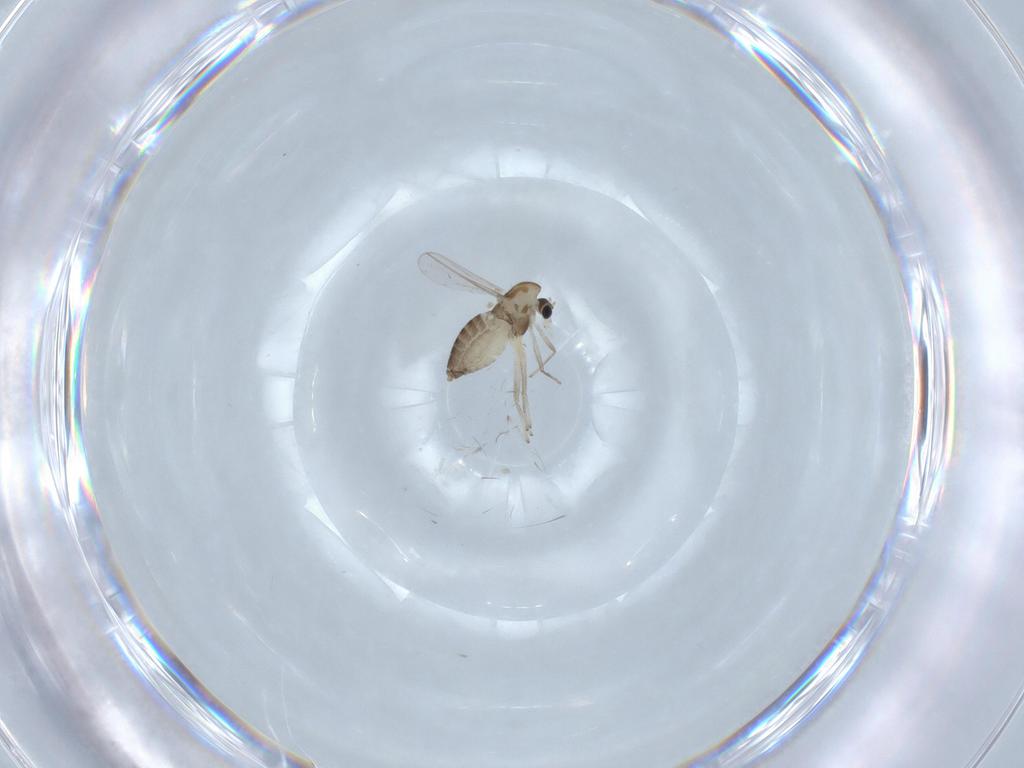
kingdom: Animalia
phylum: Arthropoda
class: Insecta
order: Diptera
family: Chironomidae
